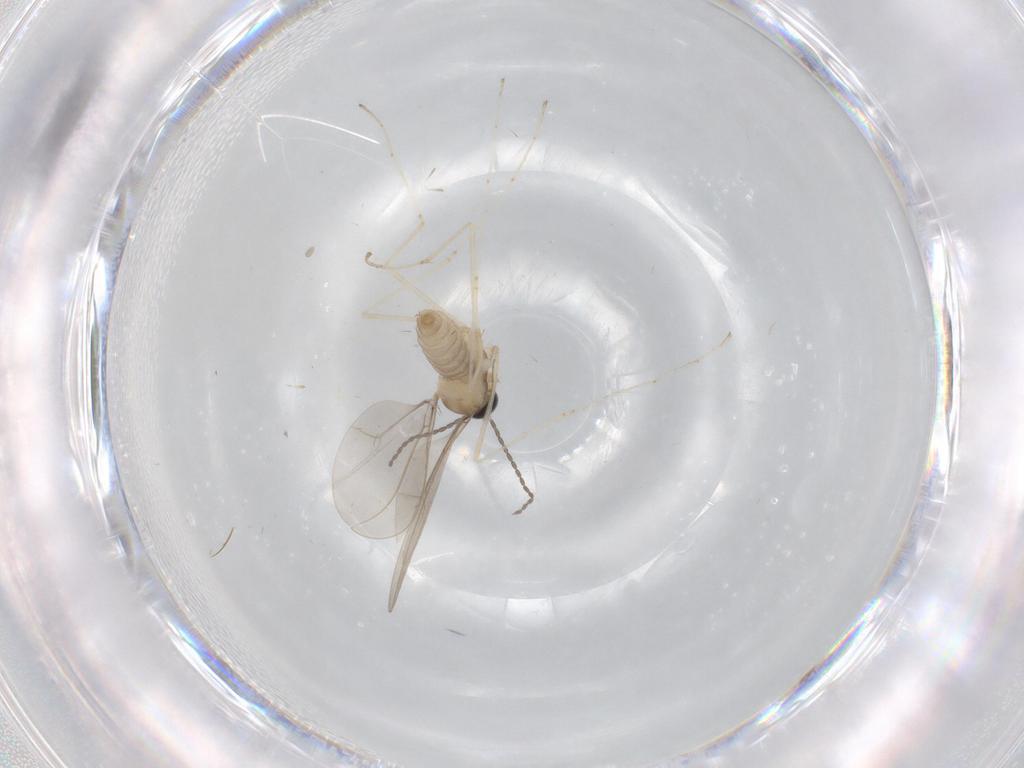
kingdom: Animalia
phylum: Arthropoda
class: Insecta
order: Diptera
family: Cecidomyiidae
